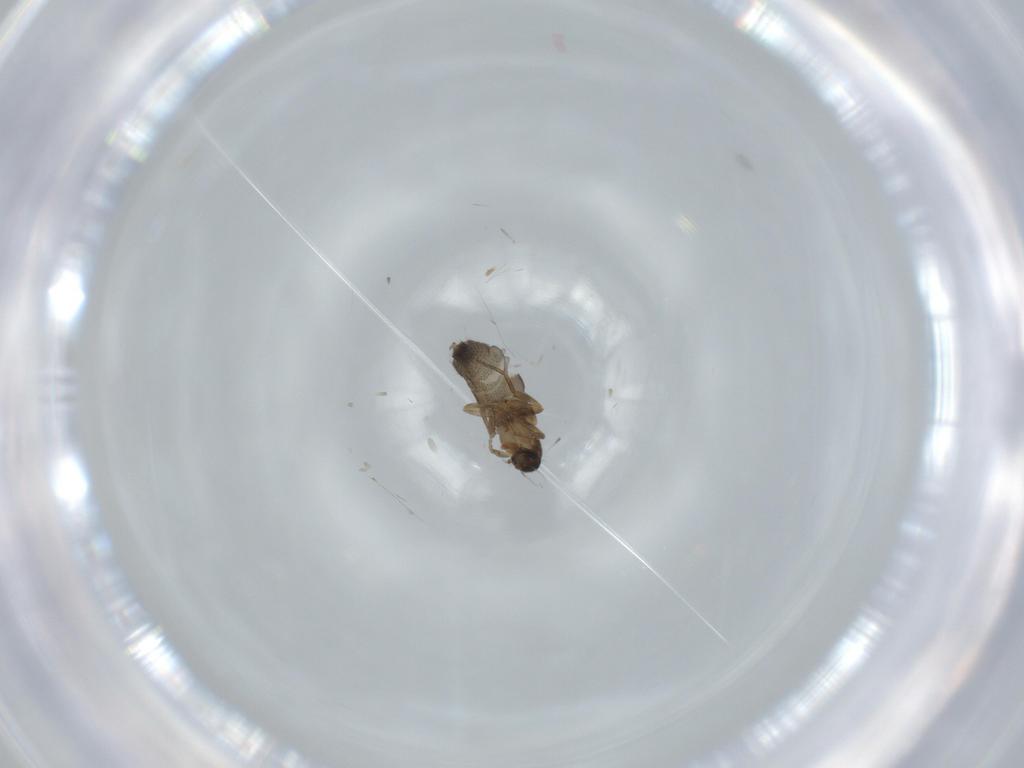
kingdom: Animalia
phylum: Arthropoda
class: Insecta
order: Diptera
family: Phoridae
